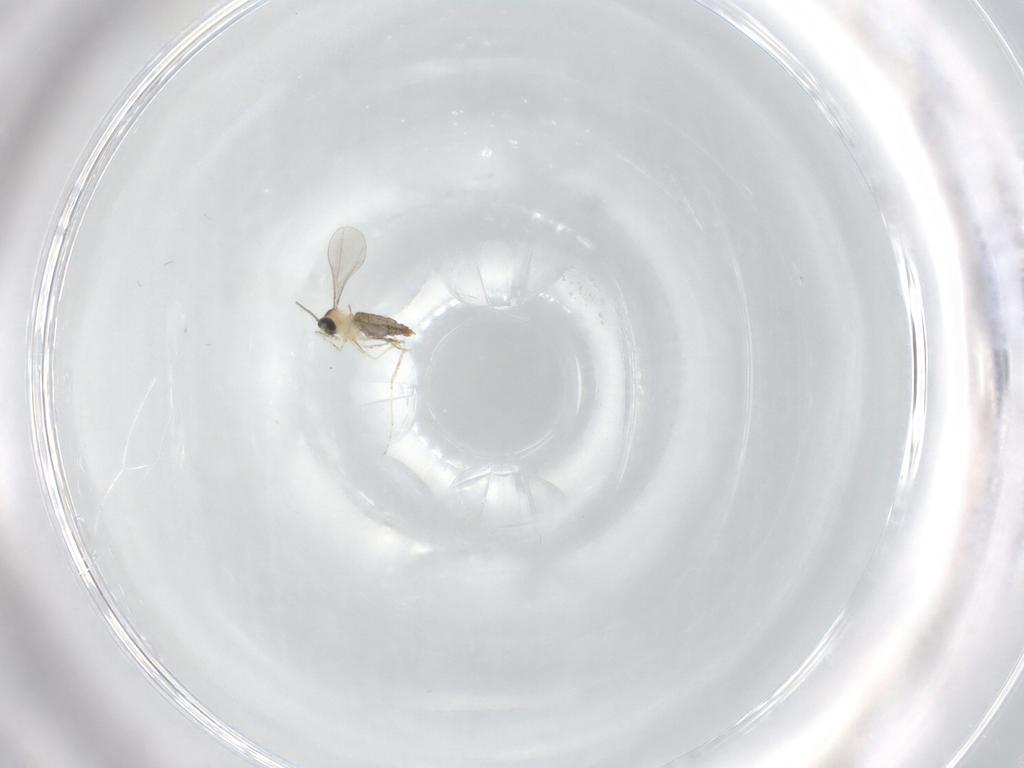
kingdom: Animalia
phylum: Arthropoda
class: Insecta
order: Diptera
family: Cecidomyiidae
